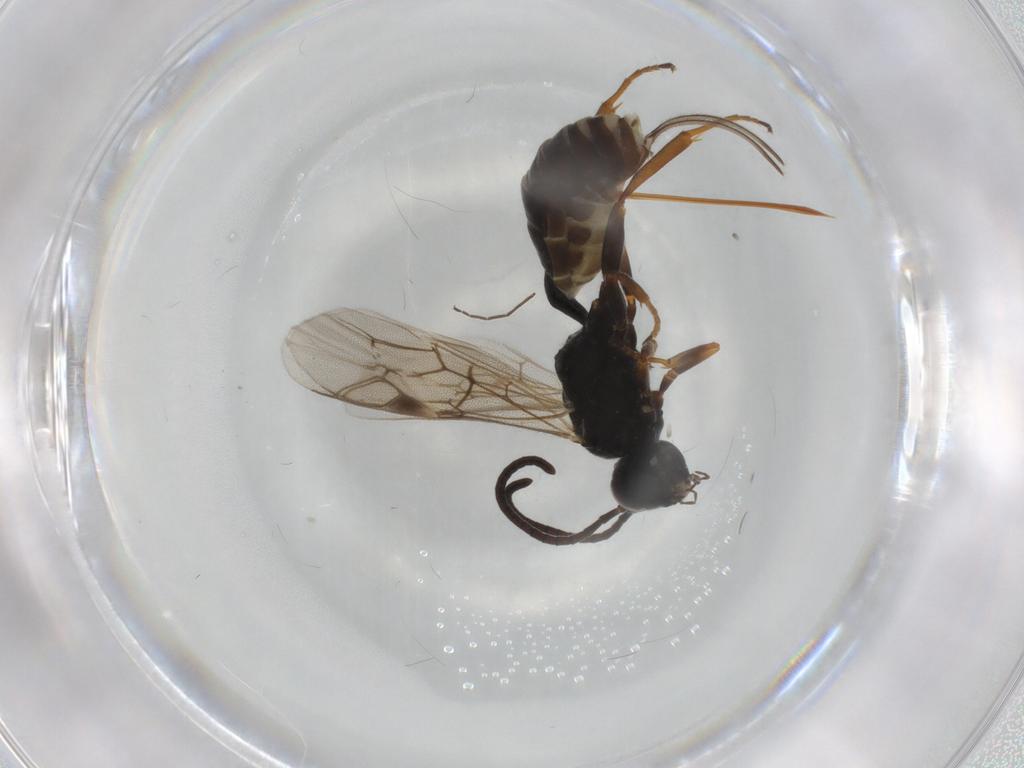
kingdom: Animalia
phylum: Arthropoda
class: Insecta
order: Hymenoptera
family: Ichneumonidae
